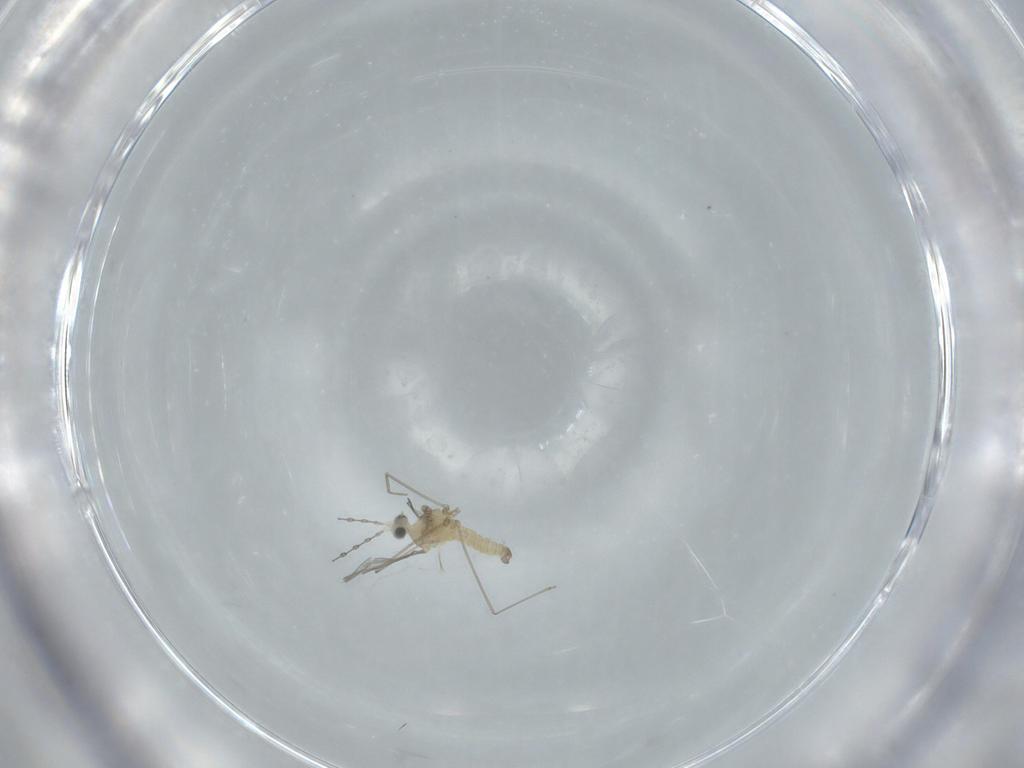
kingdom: Animalia
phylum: Arthropoda
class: Insecta
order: Diptera
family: Cecidomyiidae
